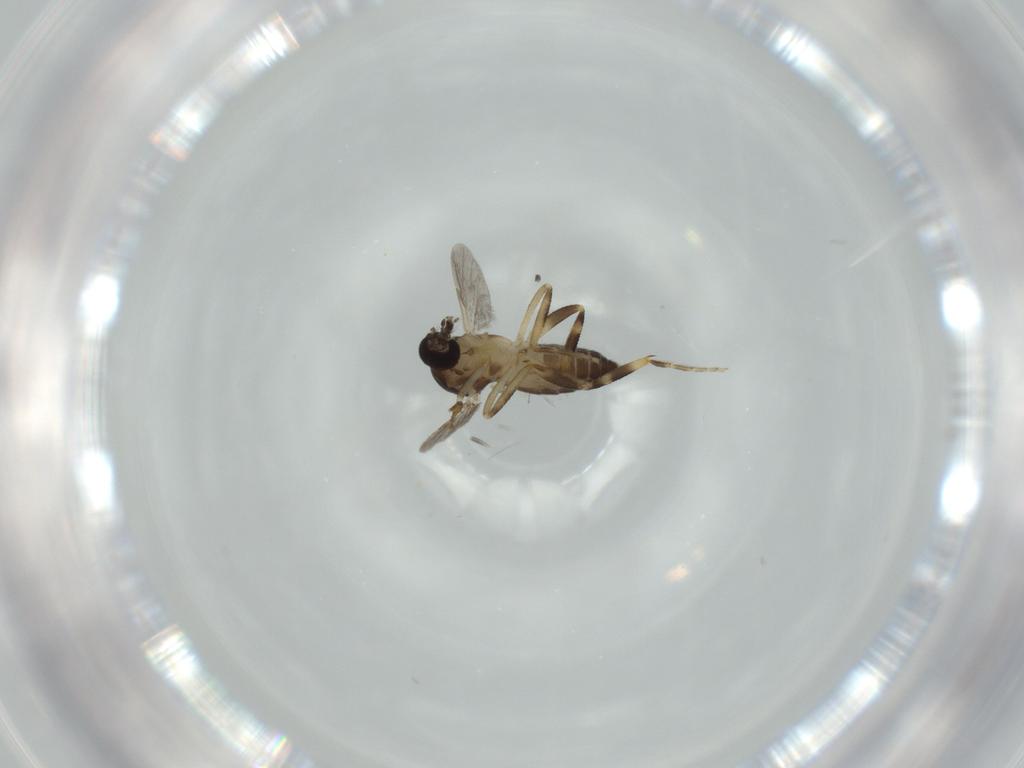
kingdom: Animalia
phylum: Arthropoda
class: Insecta
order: Diptera
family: Ceratopogonidae
